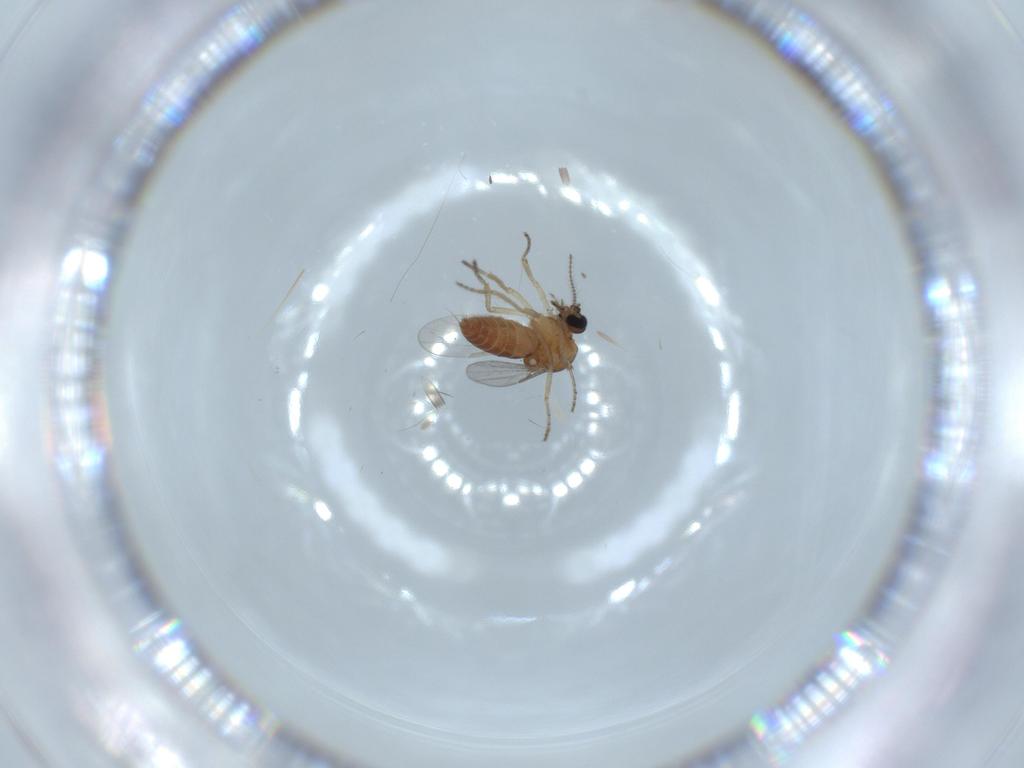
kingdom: Animalia
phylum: Arthropoda
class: Insecta
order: Diptera
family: Ceratopogonidae
